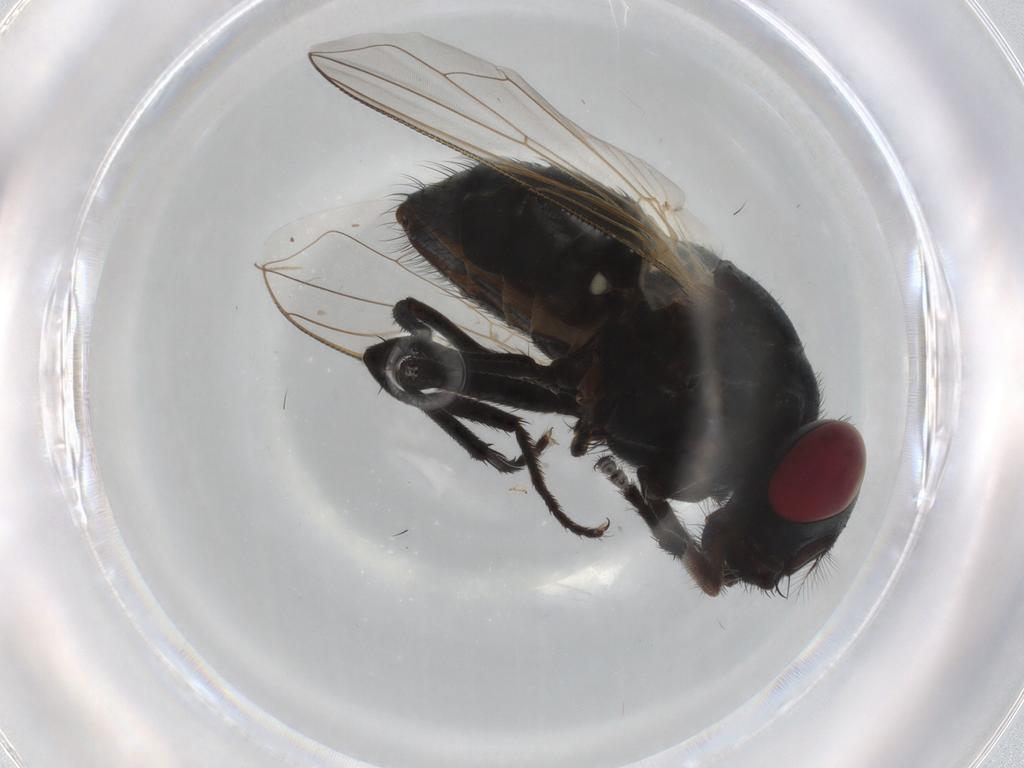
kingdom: Animalia
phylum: Arthropoda
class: Insecta
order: Diptera
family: Muscidae
